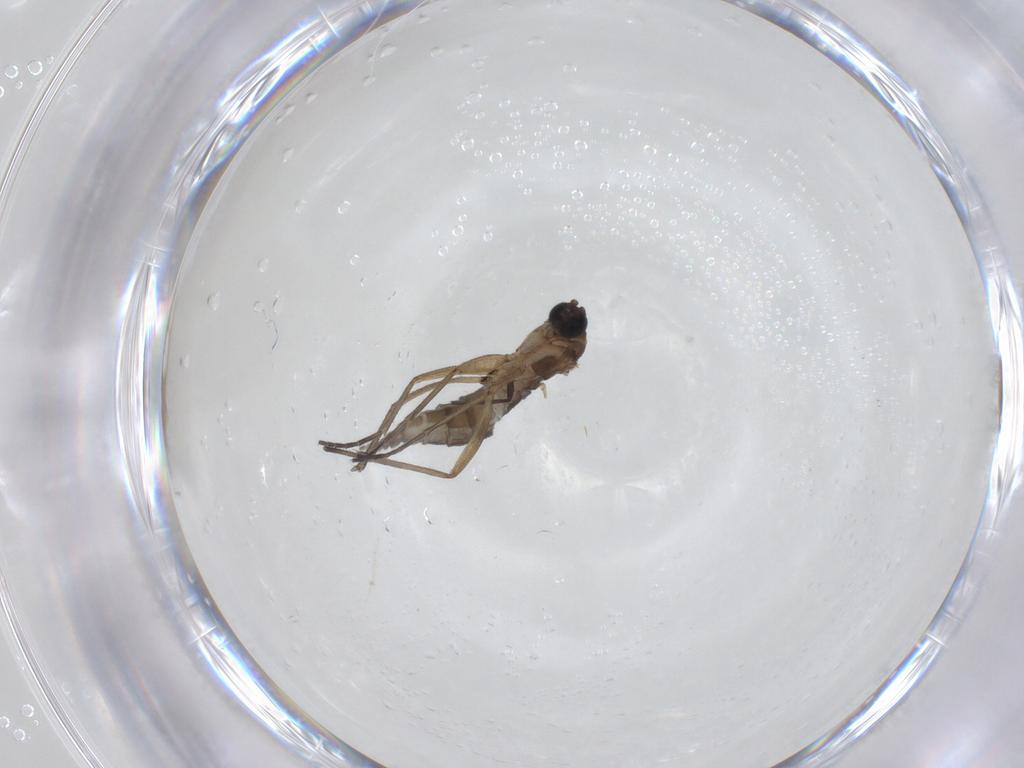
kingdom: Animalia
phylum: Arthropoda
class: Insecta
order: Diptera
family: Sciaridae
